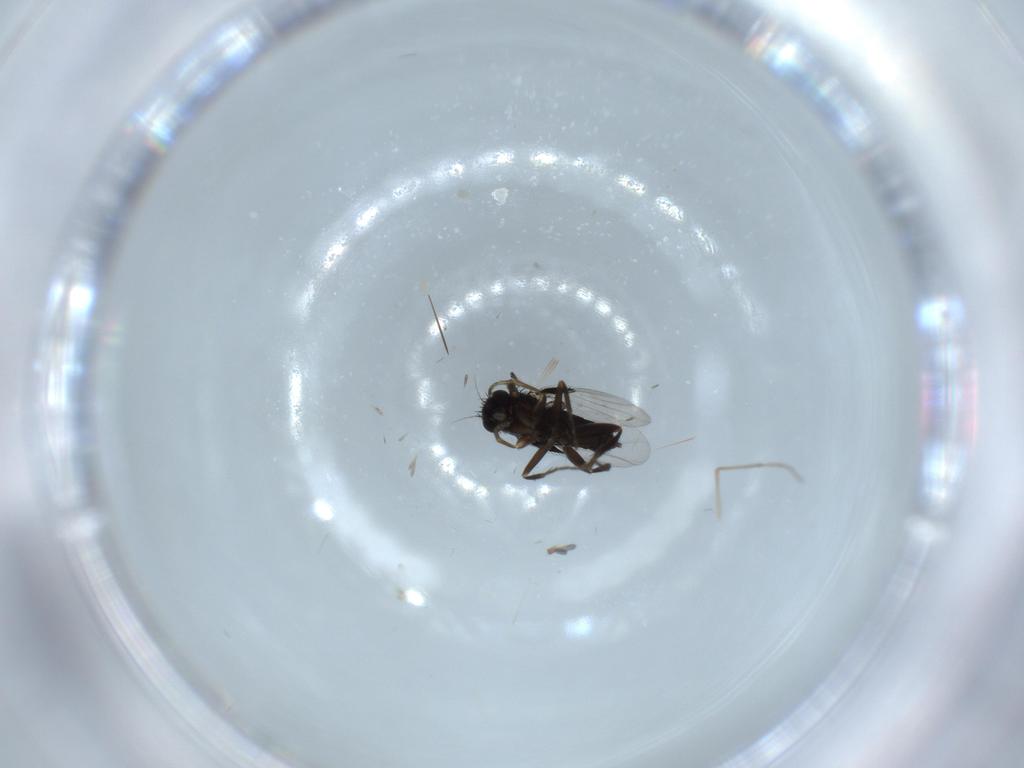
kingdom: Animalia
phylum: Arthropoda
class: Insecta
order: Diptera
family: Phoridae
